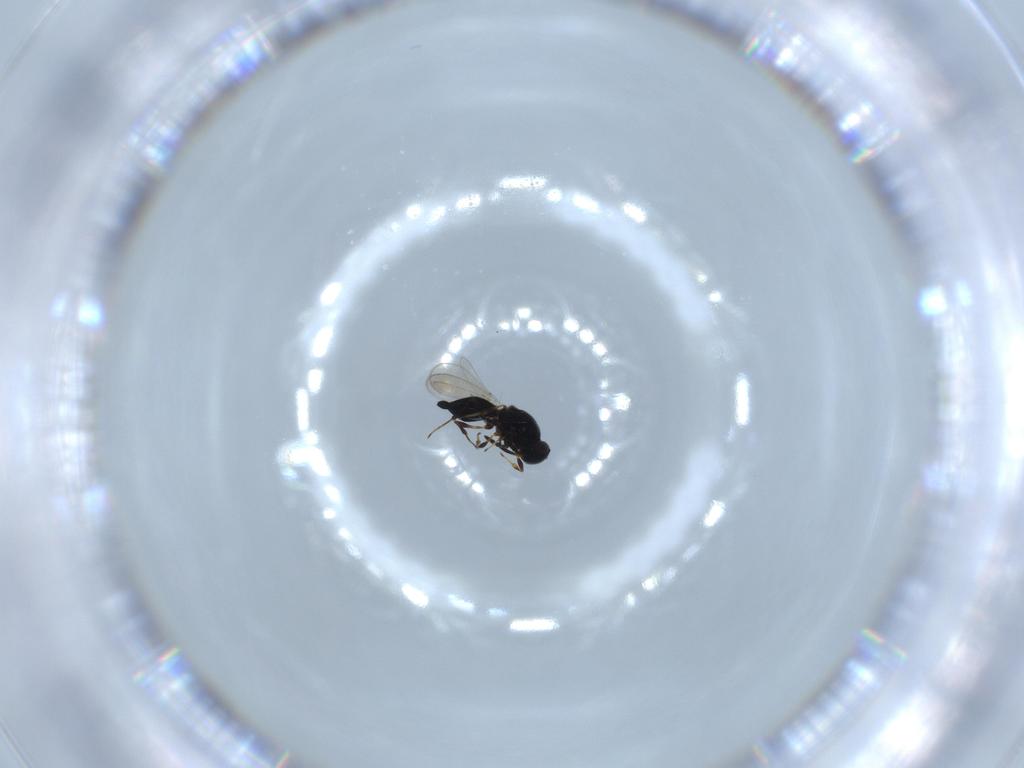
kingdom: Animalia
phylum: Arthropoda
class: Insecta
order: Hymenoptera
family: Platygastridae
